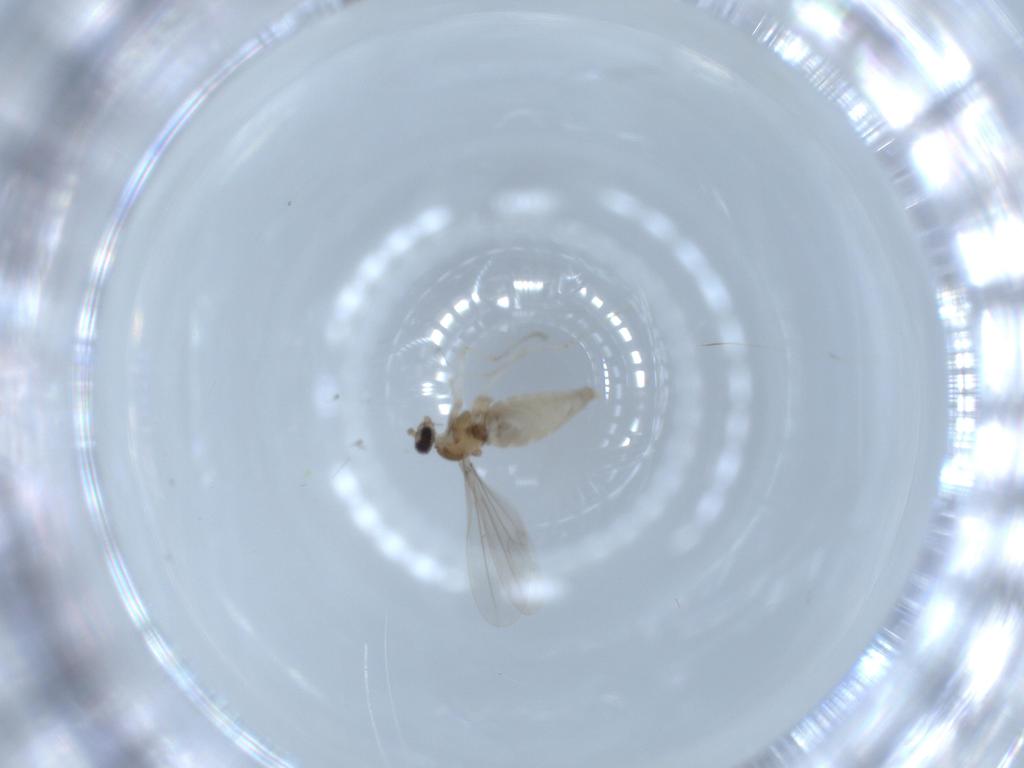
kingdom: Animalia
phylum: Arthropoda
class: Insecta
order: Diptera
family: Cecidomyiidae
